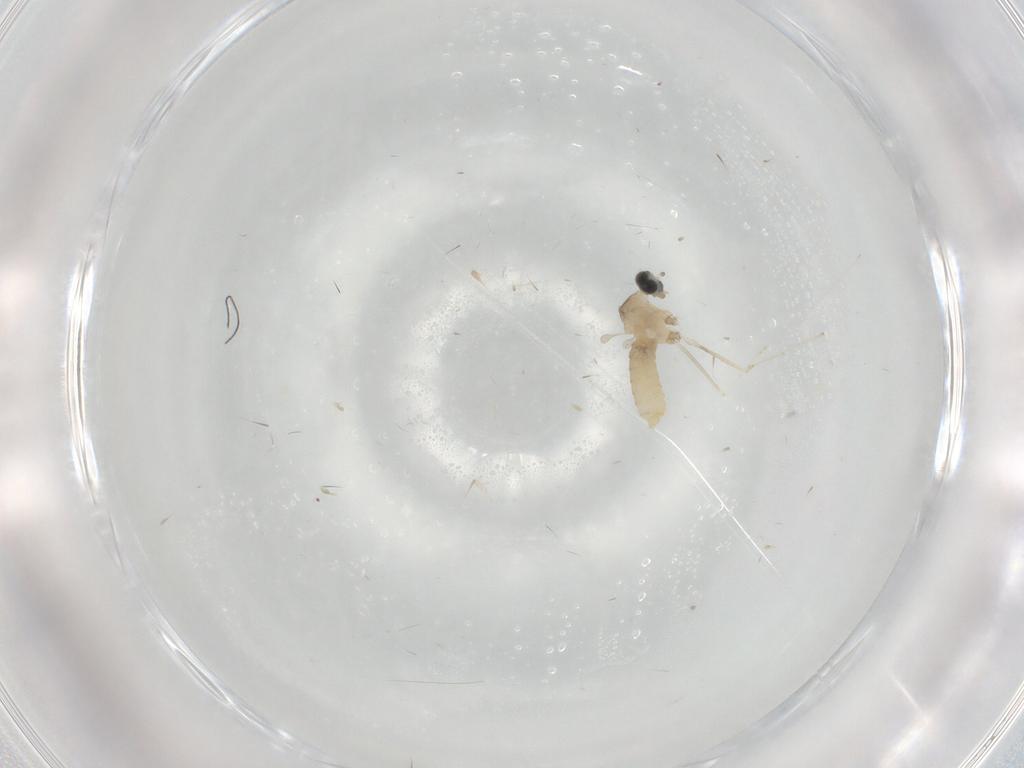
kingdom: Animalia
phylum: Arthropoda
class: Insecta
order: Diptera
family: Cecidomyiidae
